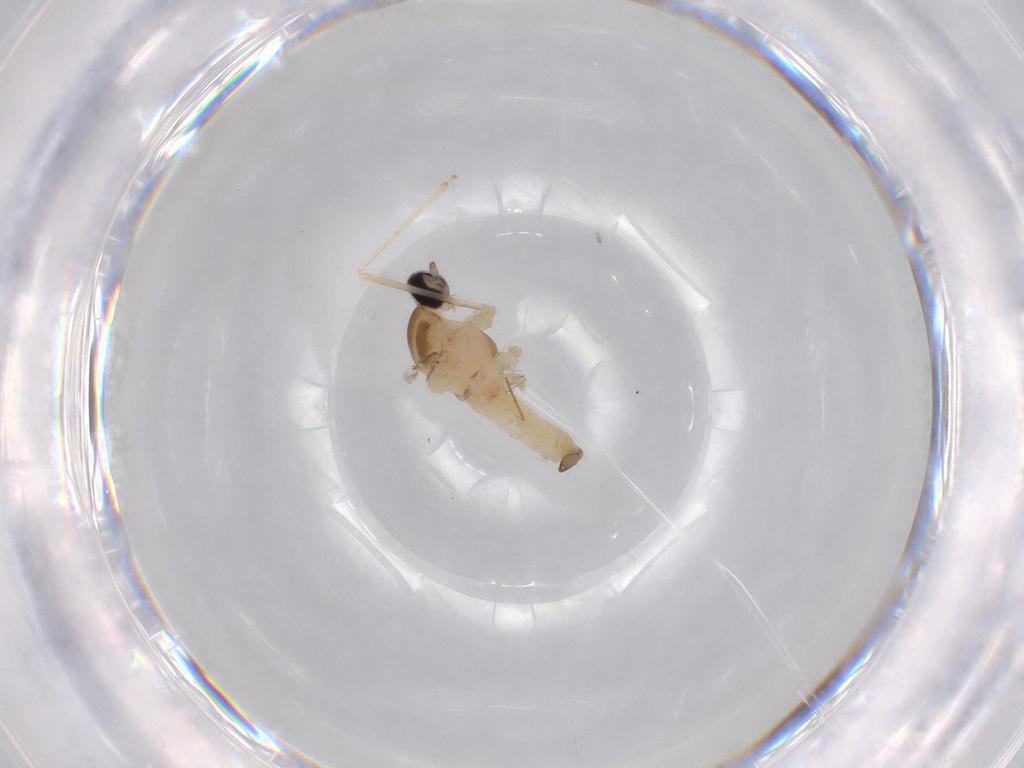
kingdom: Animalia
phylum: Arthropoda
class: Insecta
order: Diptera
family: Cecidomyiidae
